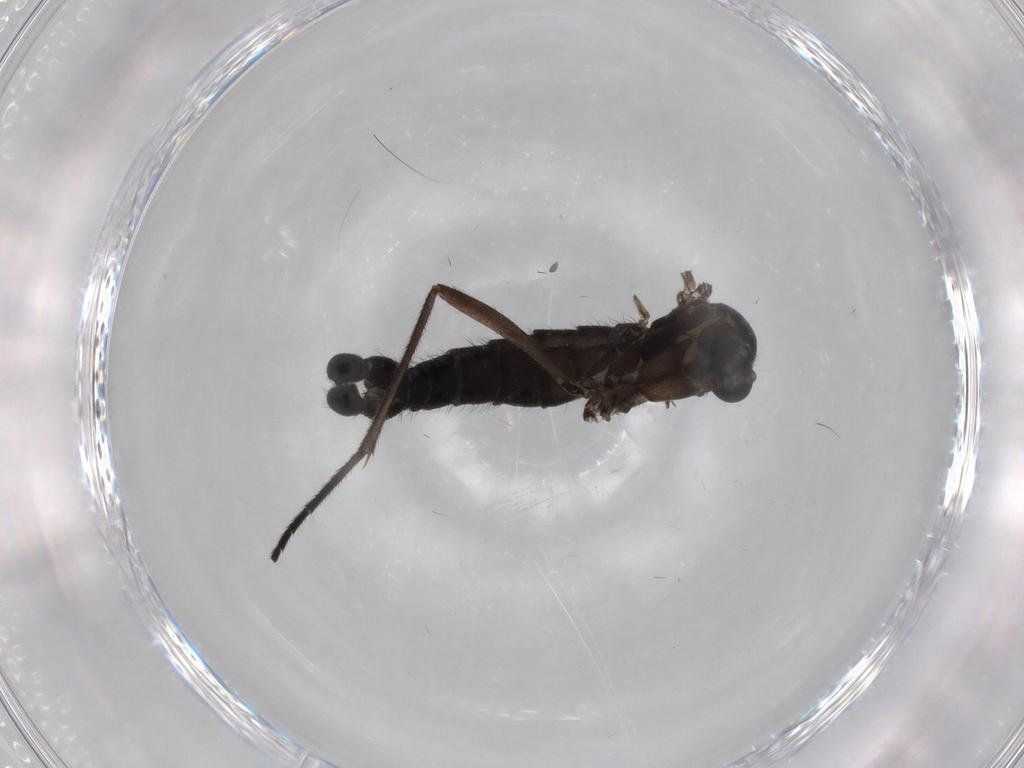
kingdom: Animalia
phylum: Arthropoda
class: Insecta
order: Diptera
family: Sciaridae
